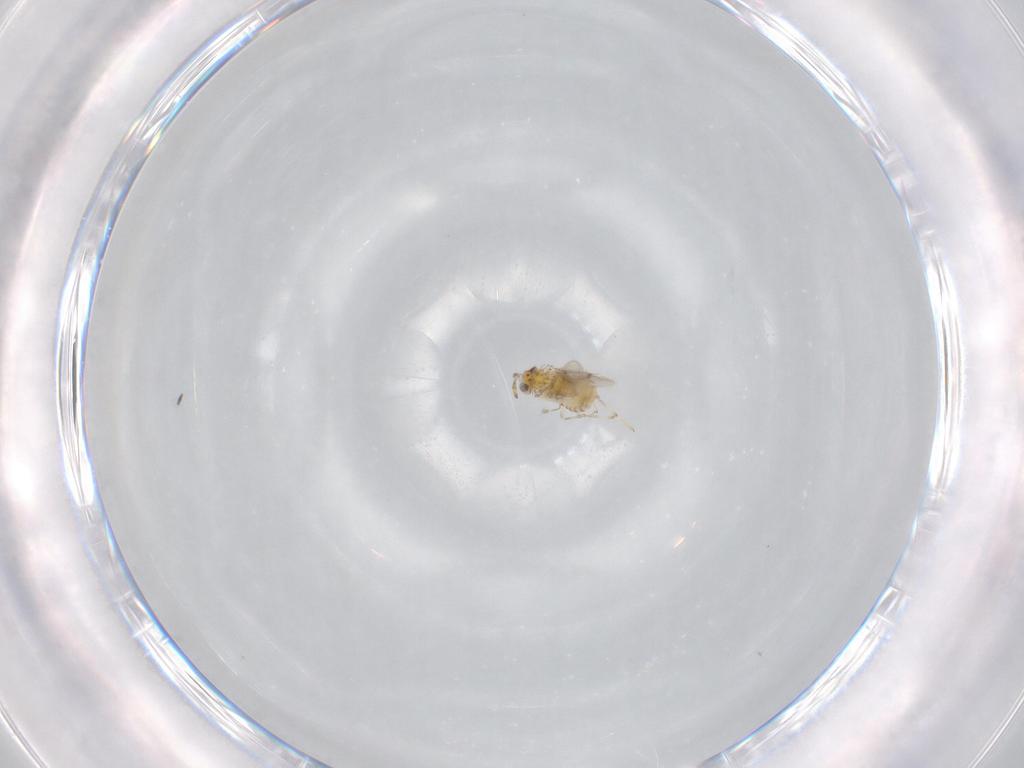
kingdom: Animalia
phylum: Arthropoda
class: Insecta
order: Hymenoptera
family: Aphelinidae
